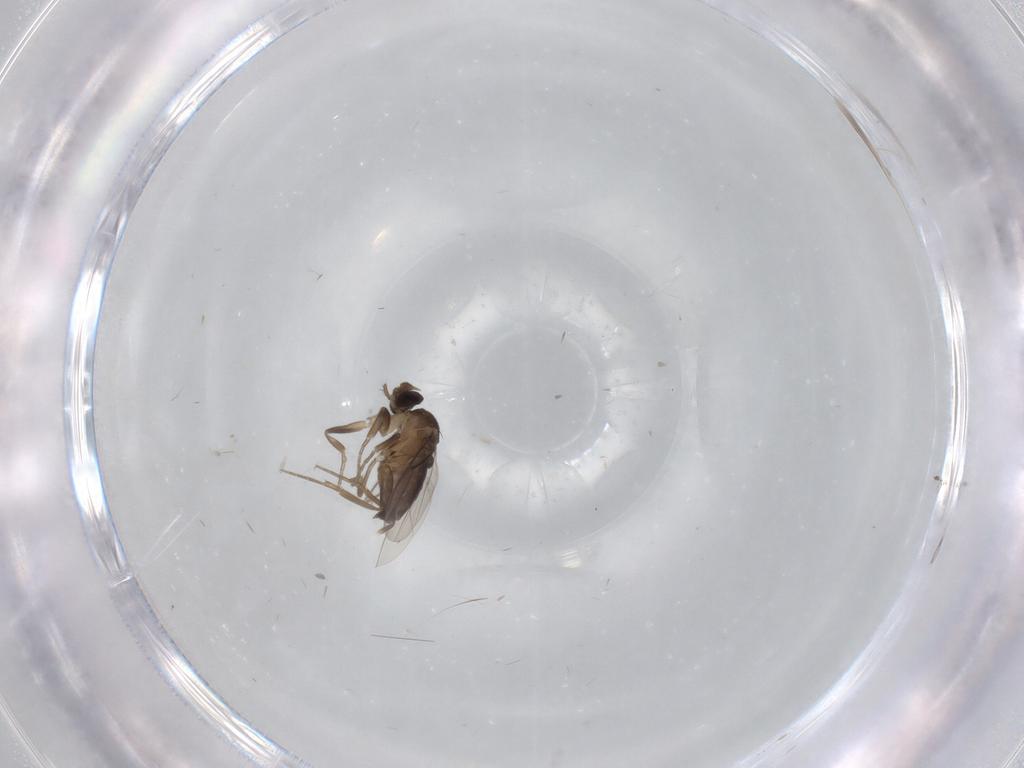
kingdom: Animalia
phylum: Arthropoda
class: Insecta
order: Diptera
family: Phoridae
